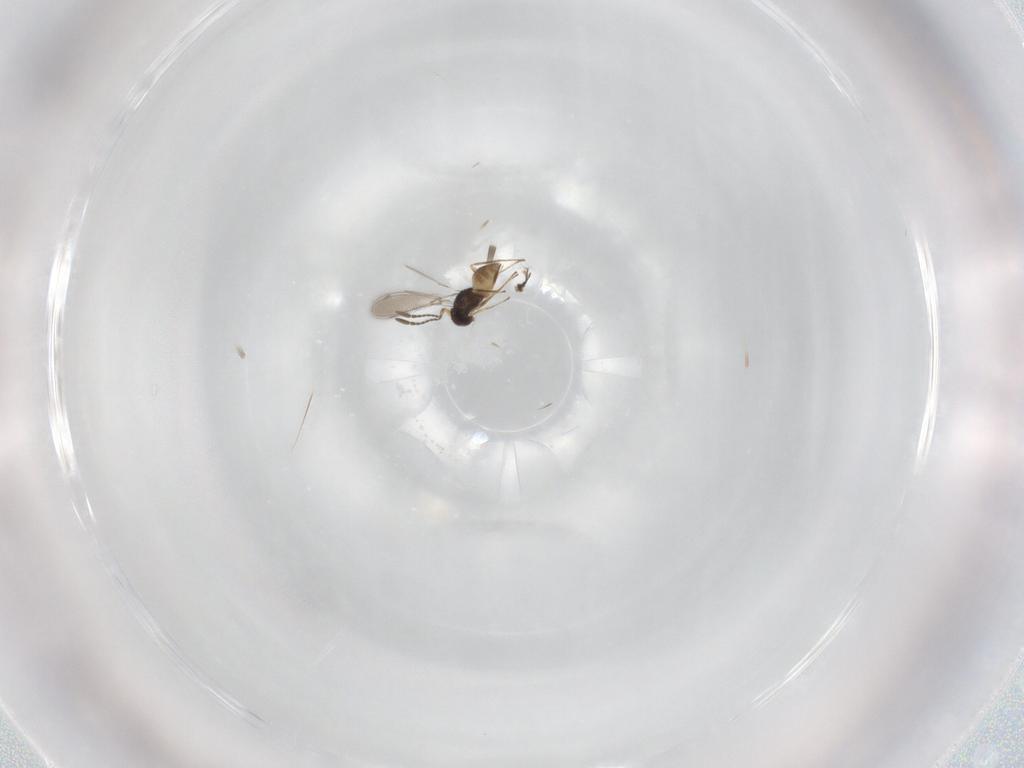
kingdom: Animalia
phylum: Arthropoda
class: Insecta
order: Hymenoptera
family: Mymaridae
